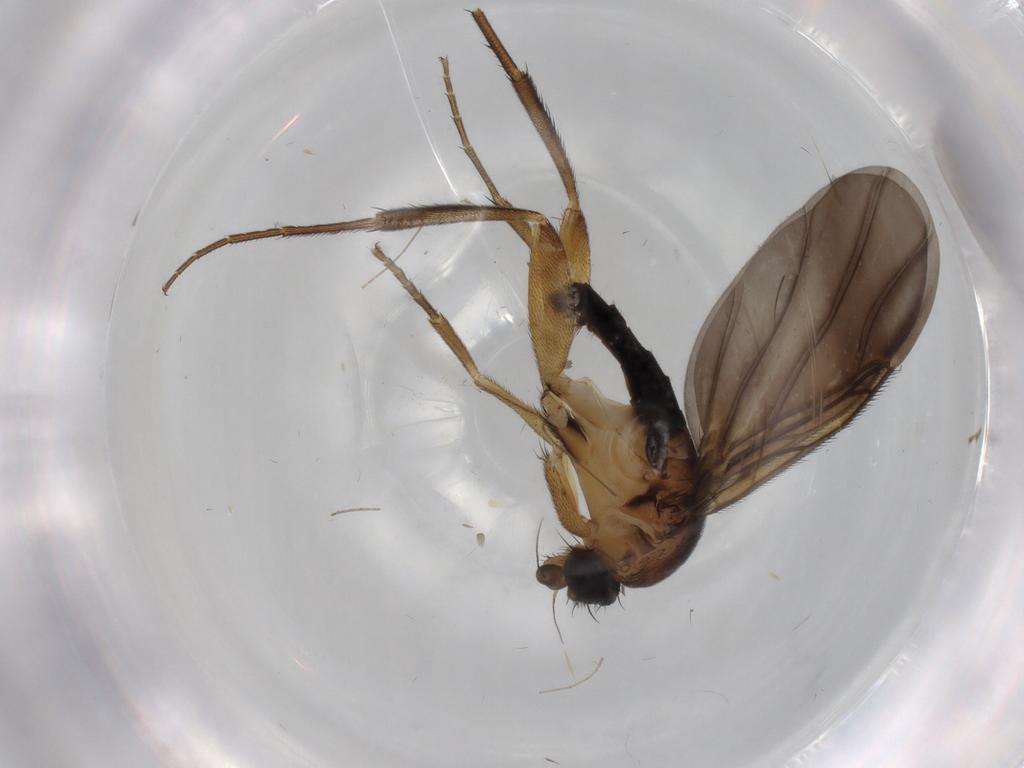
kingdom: Animalia
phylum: Arthropoda
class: Insecta
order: Diptera
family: Phoridae
